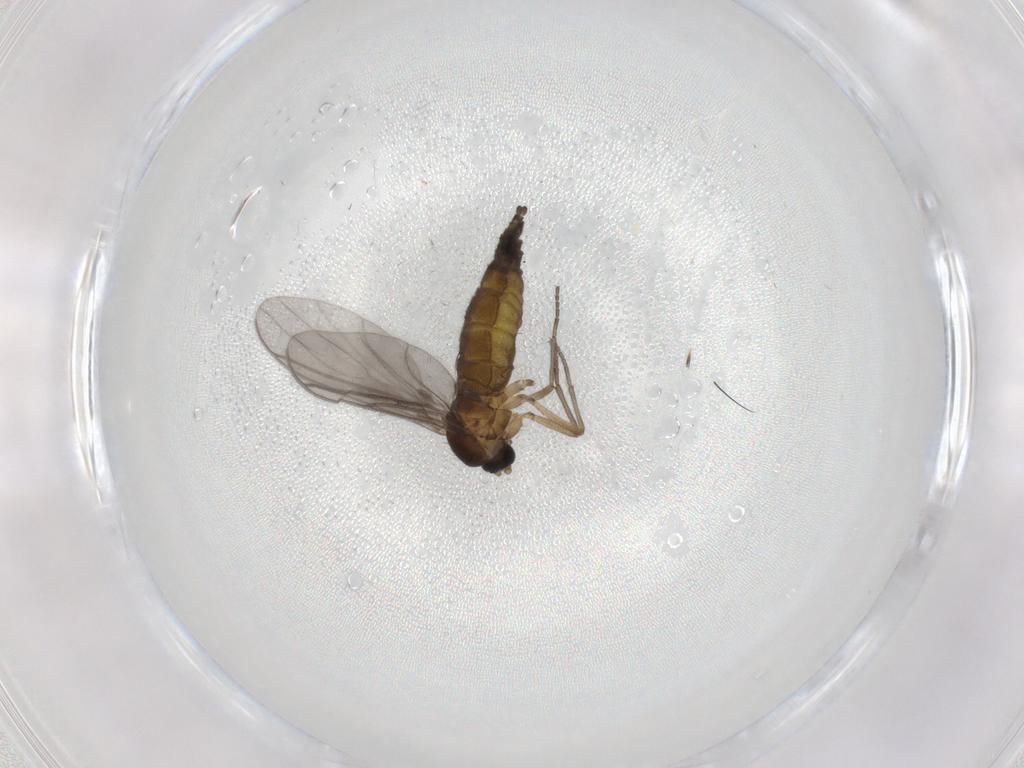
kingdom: Animalia
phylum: Arthropoda
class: Insecta
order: Diptera
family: Sciaridae
